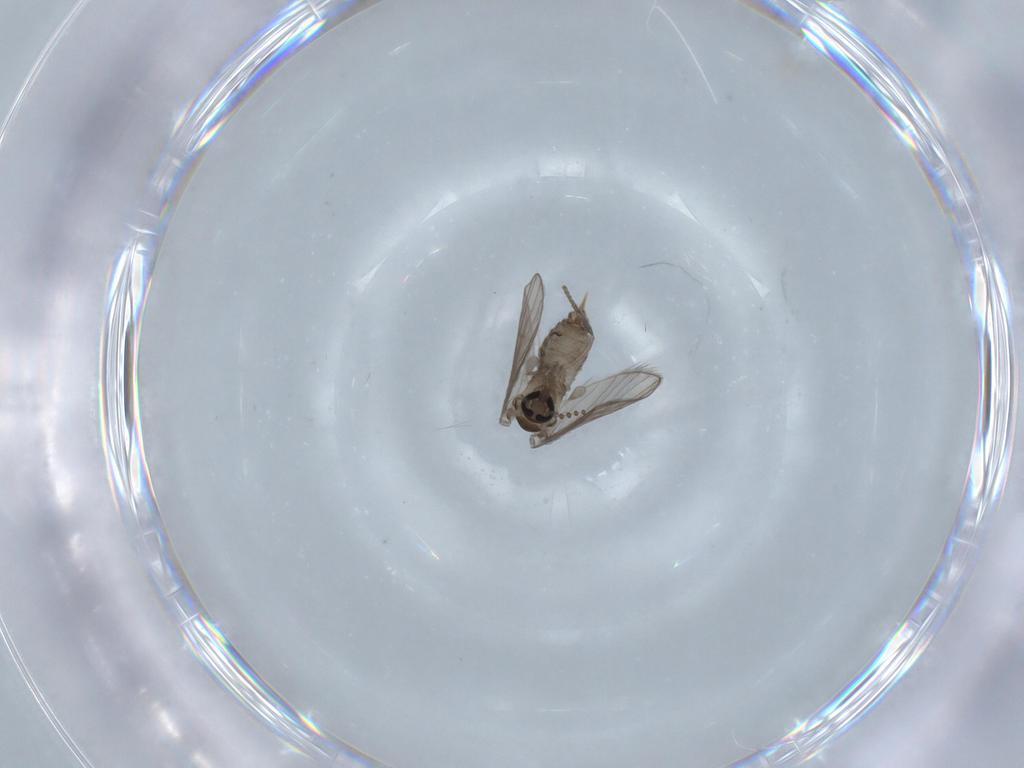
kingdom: Animalia
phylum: Arthropoda
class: Insecta
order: Diptera
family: Psychodidae
